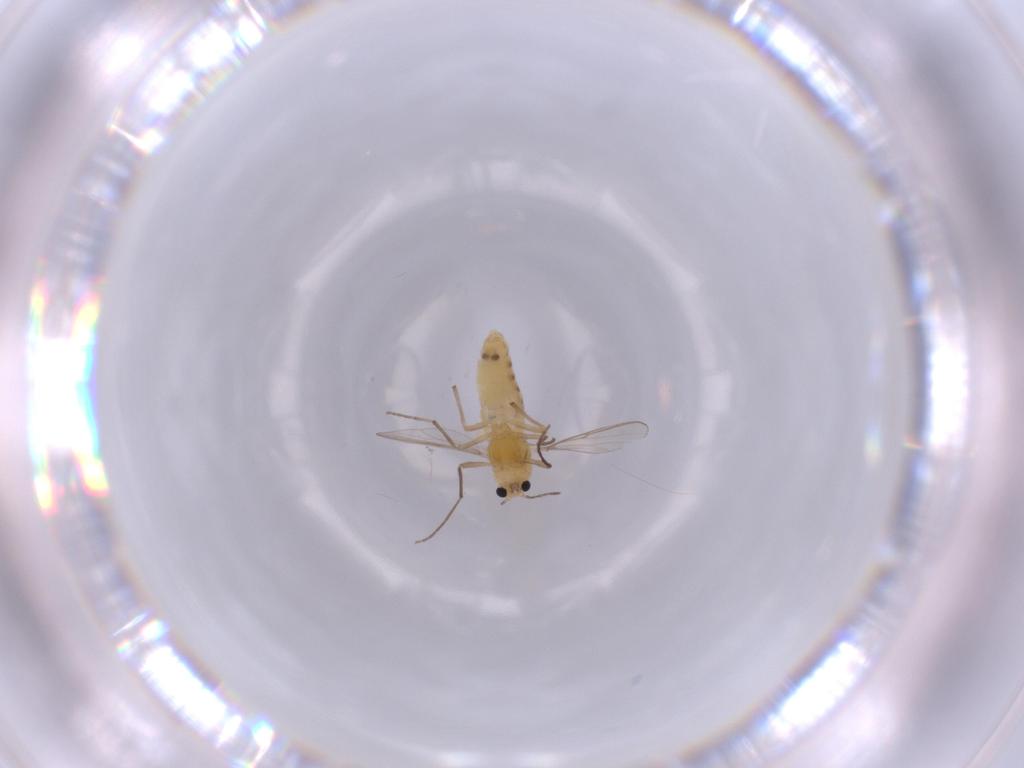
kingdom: Animalia
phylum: Arthropoda
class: Insecta
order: Diptera
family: Chironomidae
